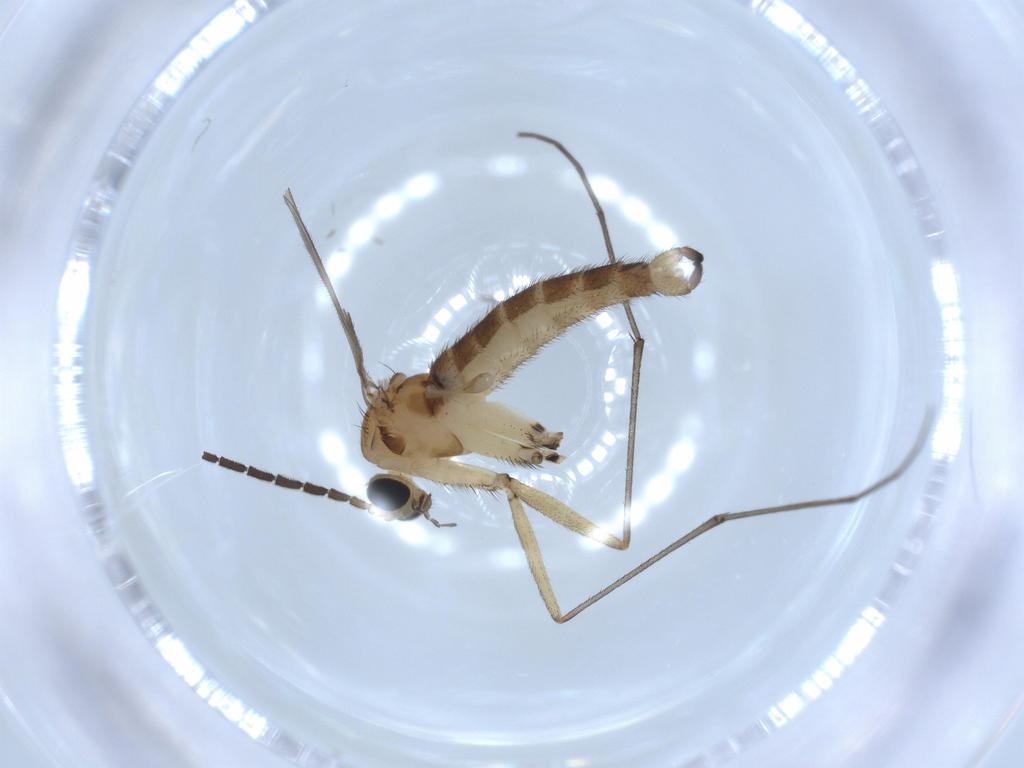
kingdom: Animalia
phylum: Arthropoda
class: Insecta
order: Diptera
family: Sciaridae
